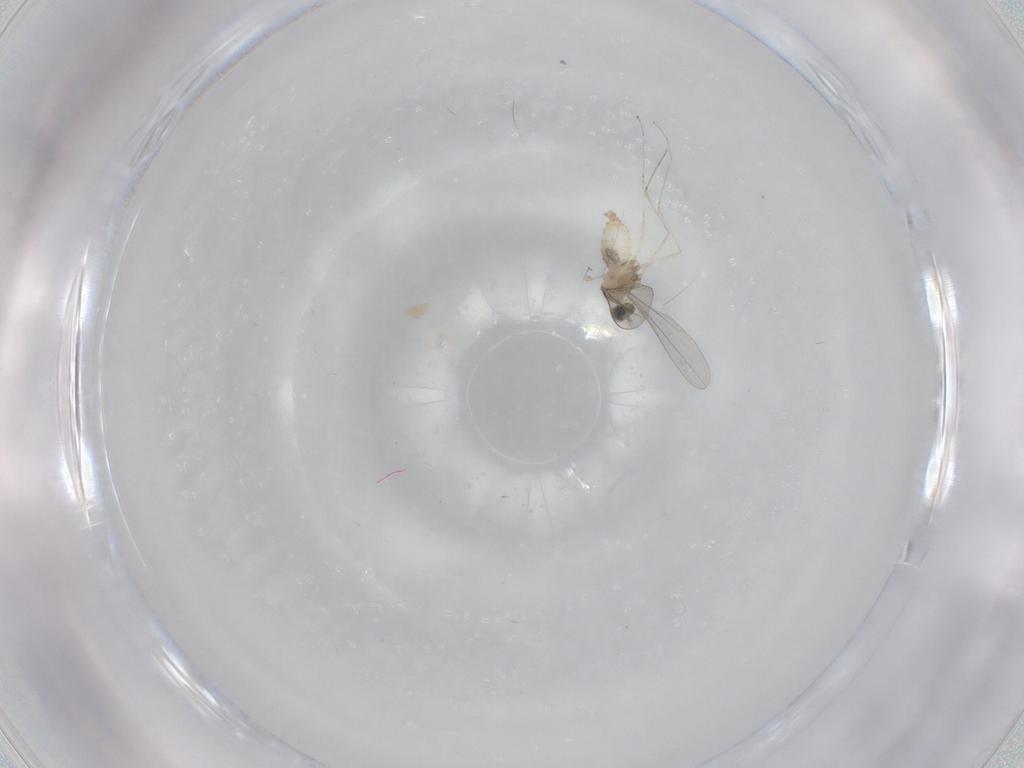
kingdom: Animalia
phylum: Arthropoda
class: Insecta
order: Diptera
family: Cecidomyiidae
